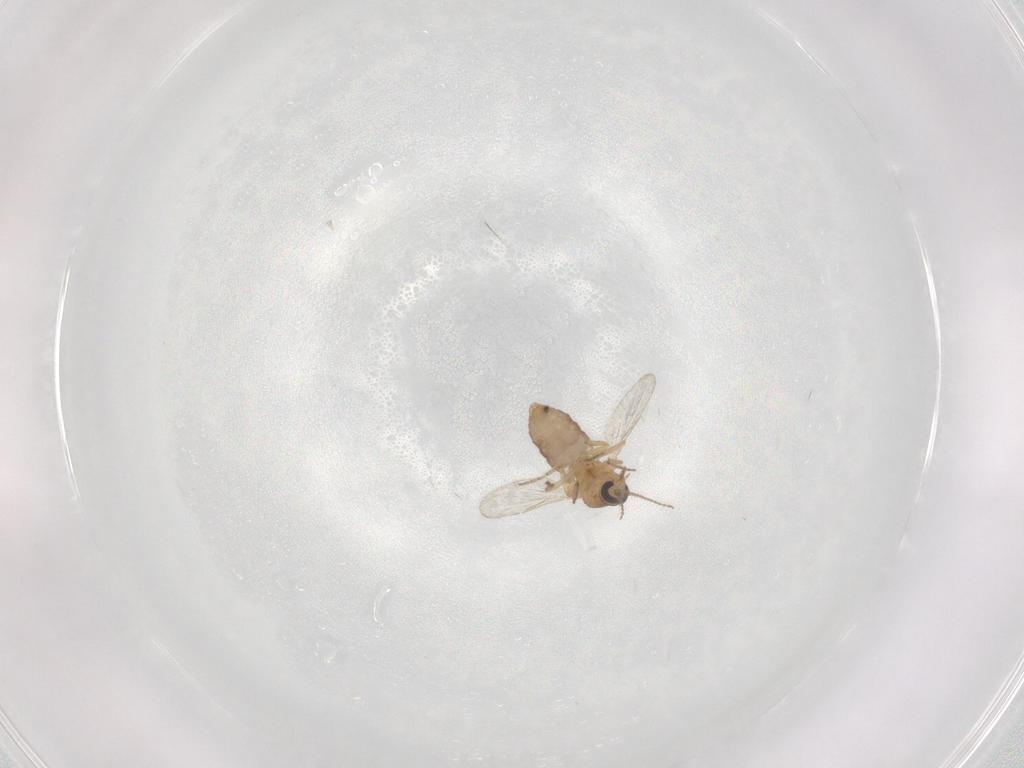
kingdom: Animalia
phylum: Arthropoda
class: Insecta
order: Diptera
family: Ceratopogonidae
